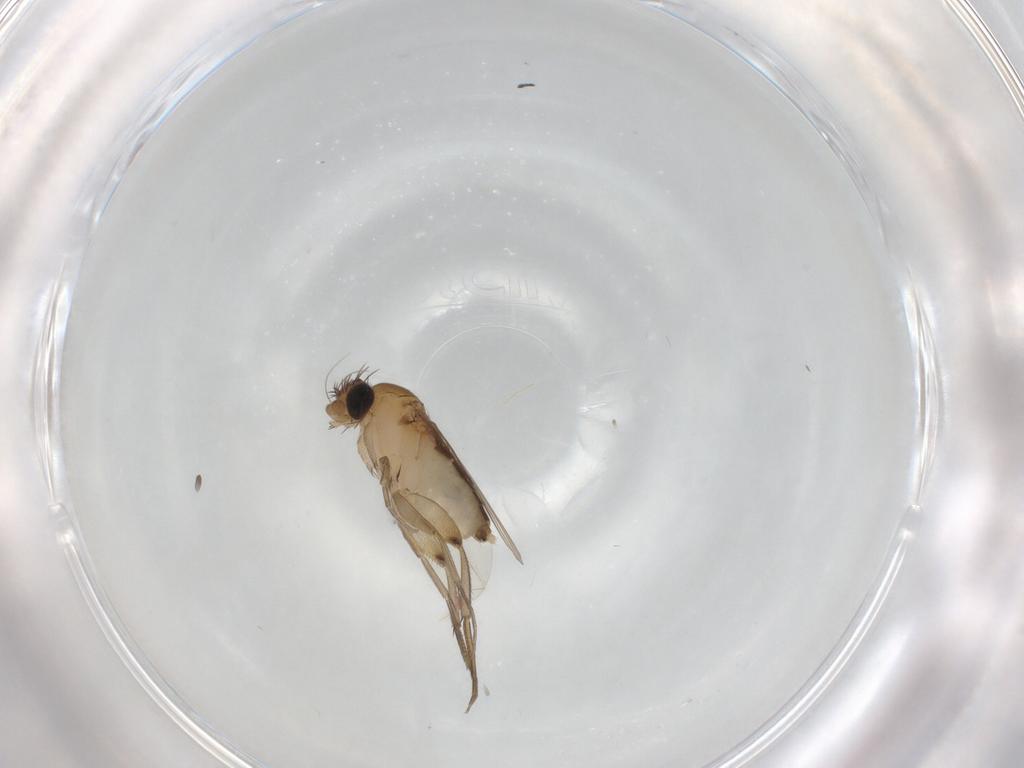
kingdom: Animalia
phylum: Arthropoda
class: Insecta
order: Diptera
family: Phoridae
